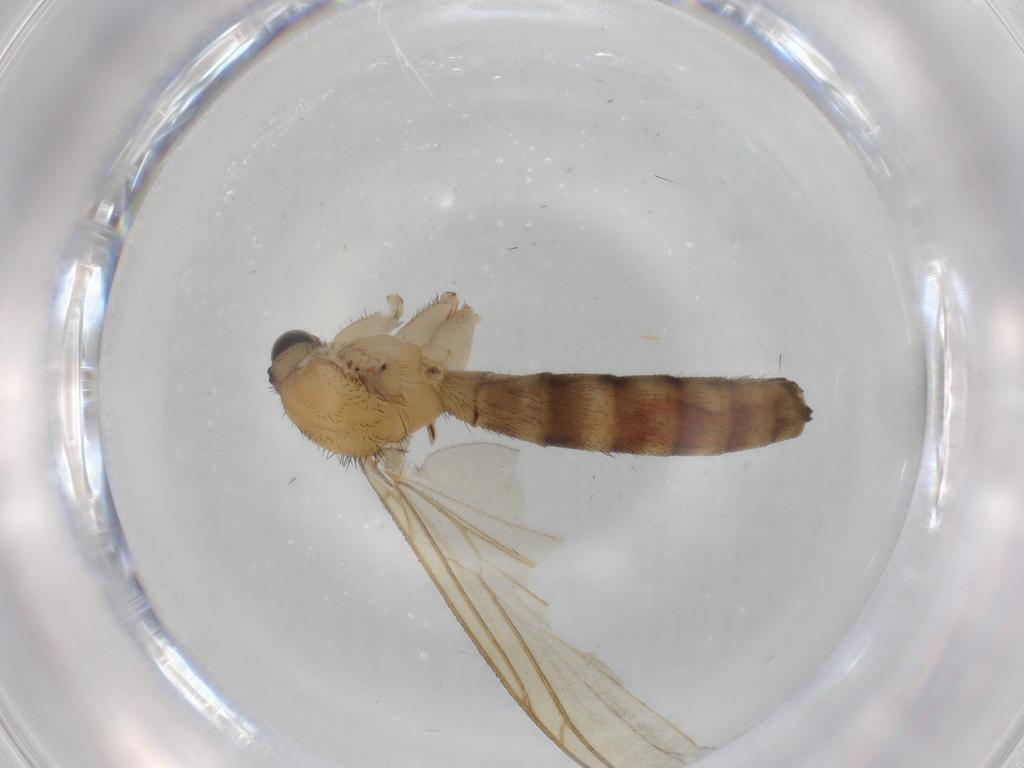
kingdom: Animalia
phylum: Arthropoda
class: Insecta
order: Diptera
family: Keroplatidae
